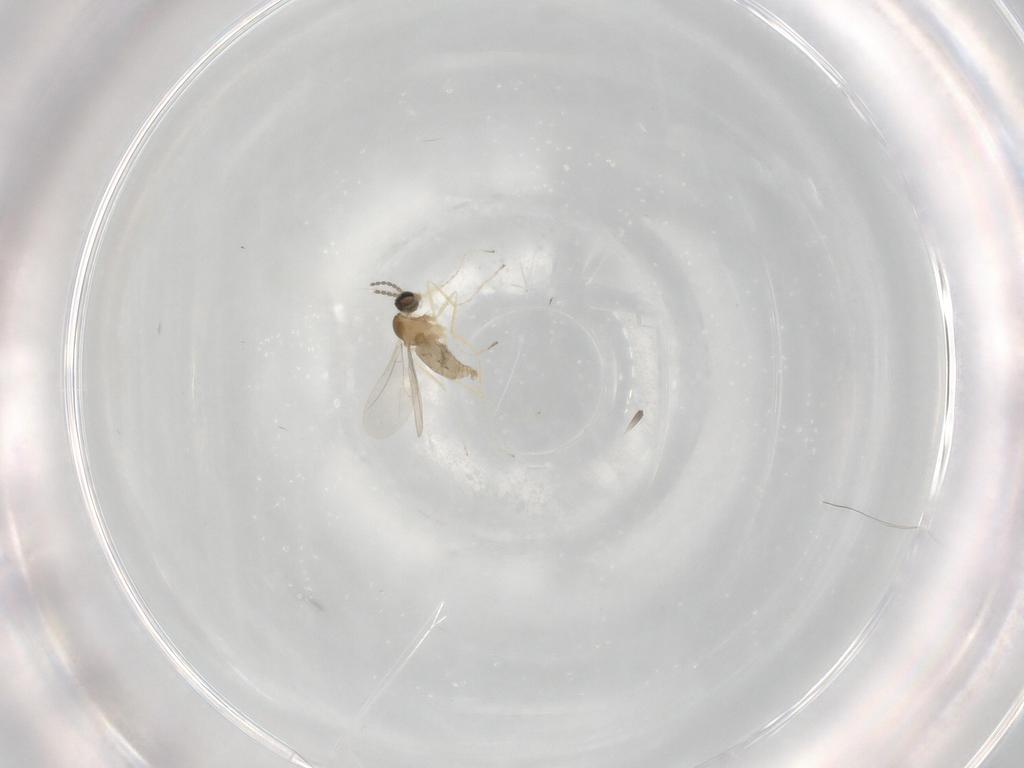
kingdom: Animalia
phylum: Arthropoda
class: Insecta
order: Diptera
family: Cecidomyiidae
